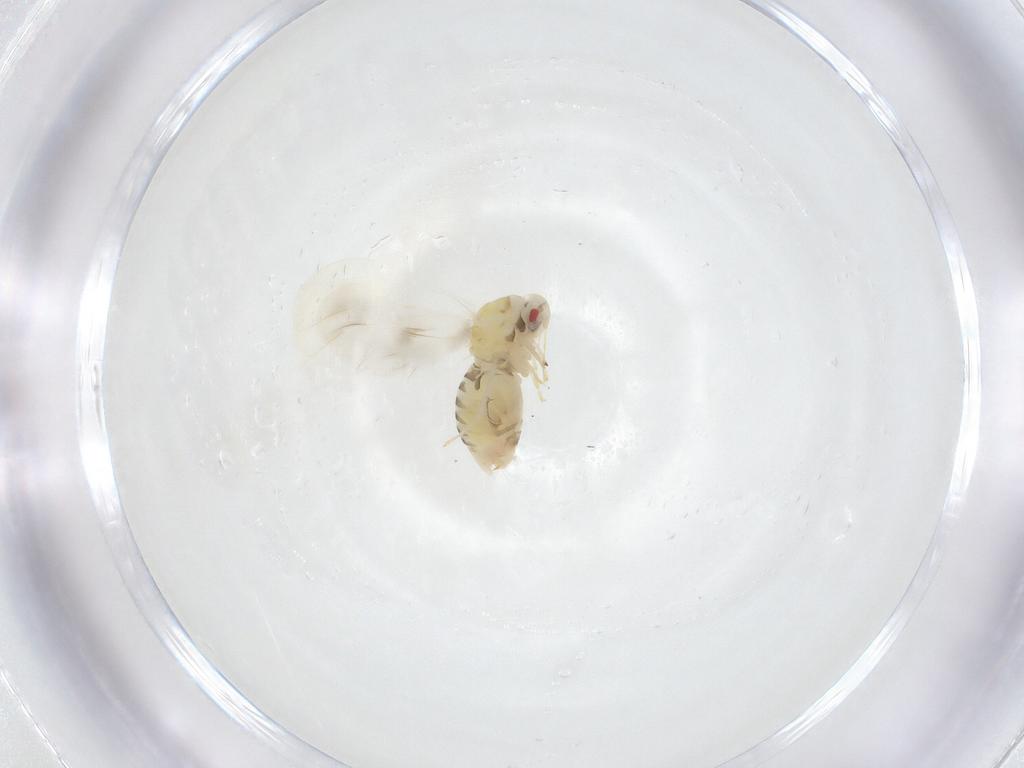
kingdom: Animalia
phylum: Arthropoda
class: Insecta
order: Hemiptera
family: Aleyrodidae
